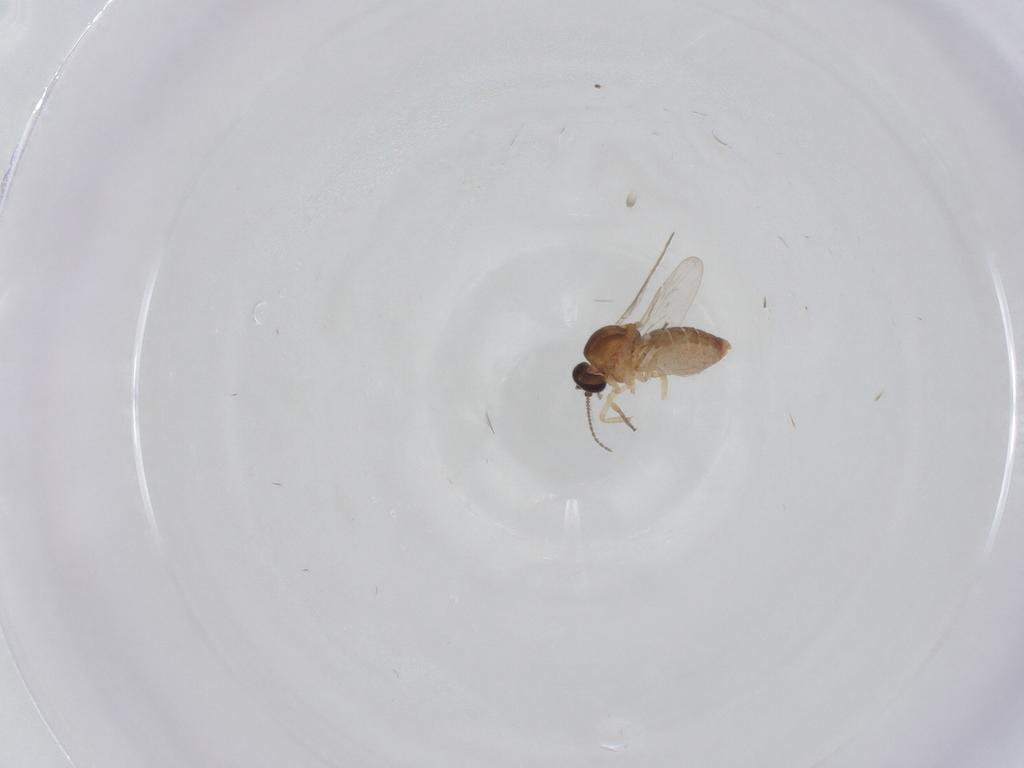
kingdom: Animalia
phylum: Arthropoda
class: Insecta
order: Diptera
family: Ceratopogonidae
